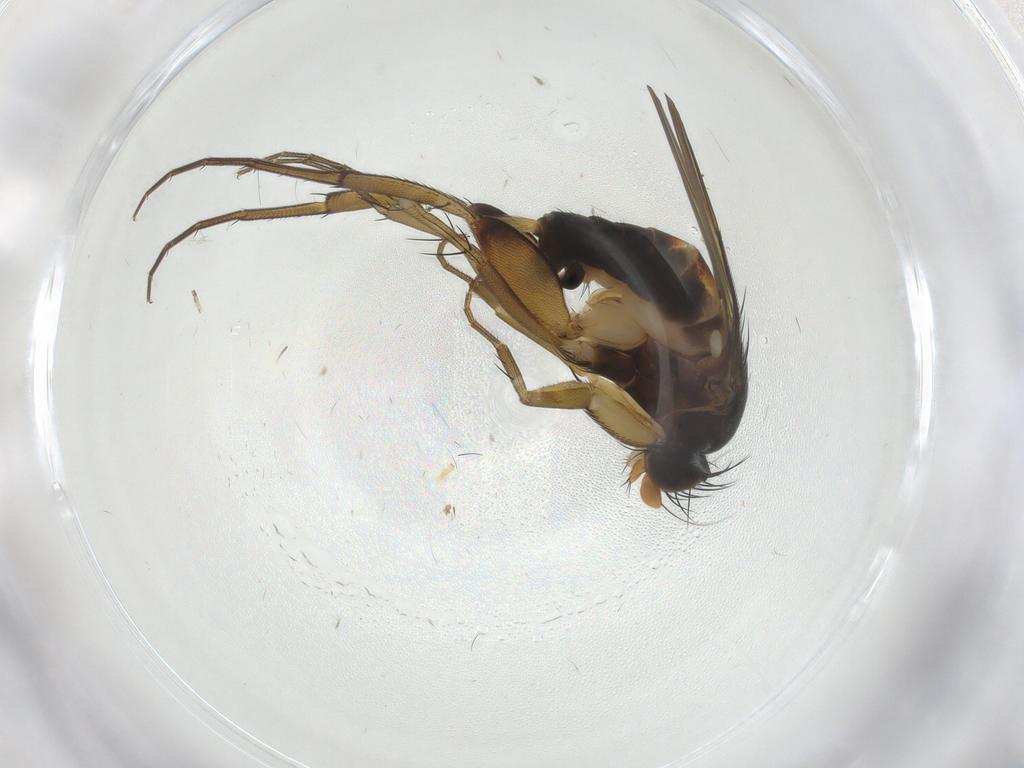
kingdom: Animalia
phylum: Arthropoda
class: Insecta
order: Diptera
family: Phoridae
